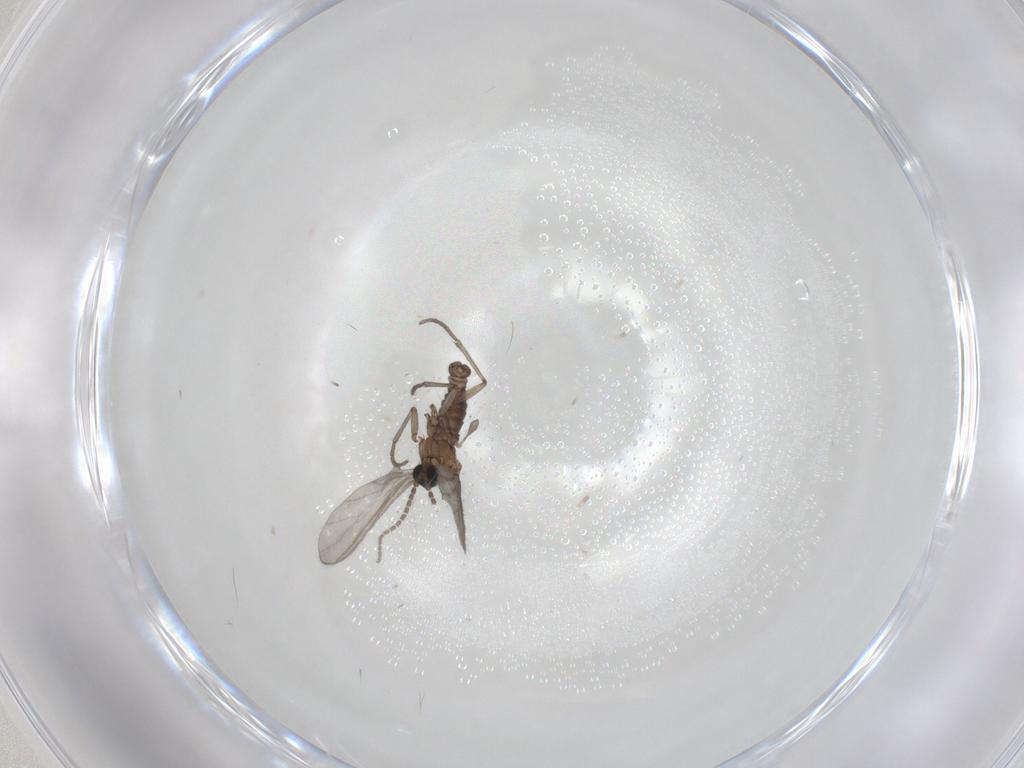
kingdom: Animalia
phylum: Arthropoda
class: Insecta
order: Diptera
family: Sciaridae
